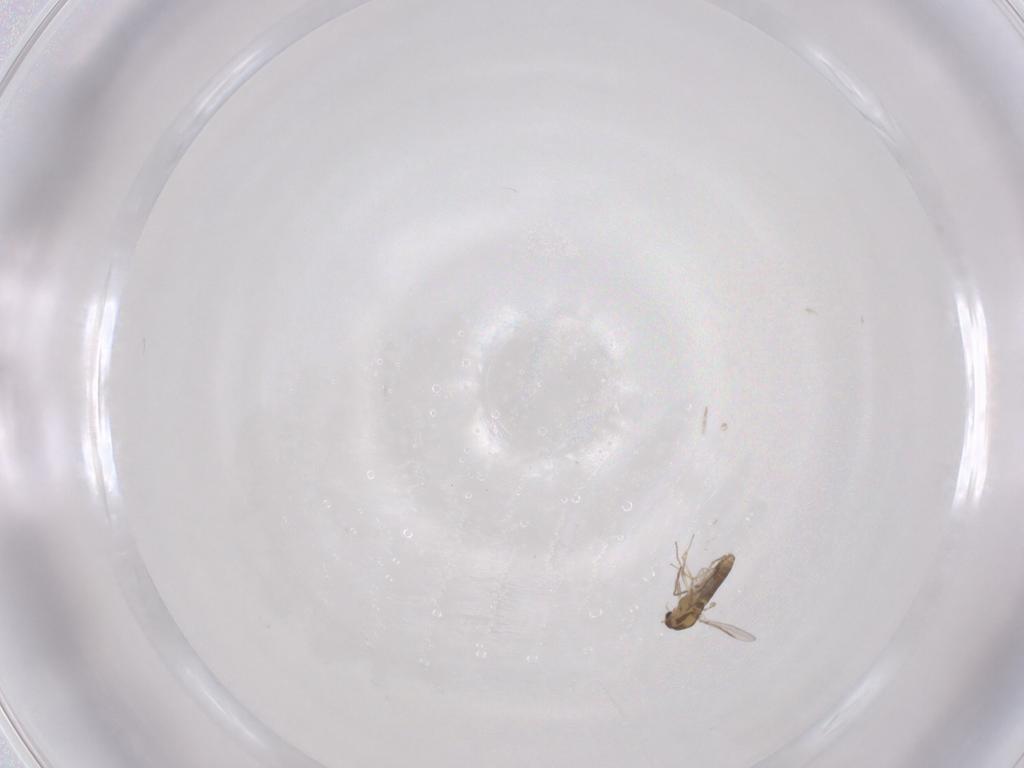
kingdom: Animalia
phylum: Arthropoda
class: Insecta
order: Diptera
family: Chironomidae
